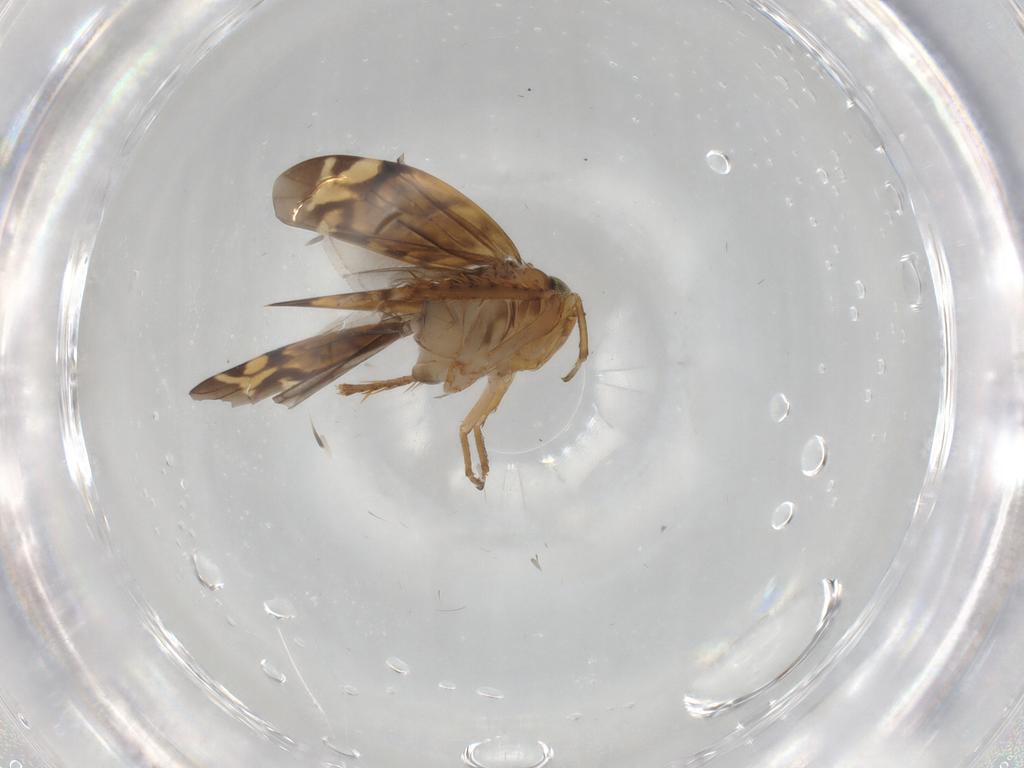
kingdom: Animalia
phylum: Arthropoda
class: Insecta
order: Hemiptera
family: Cicadellidae
